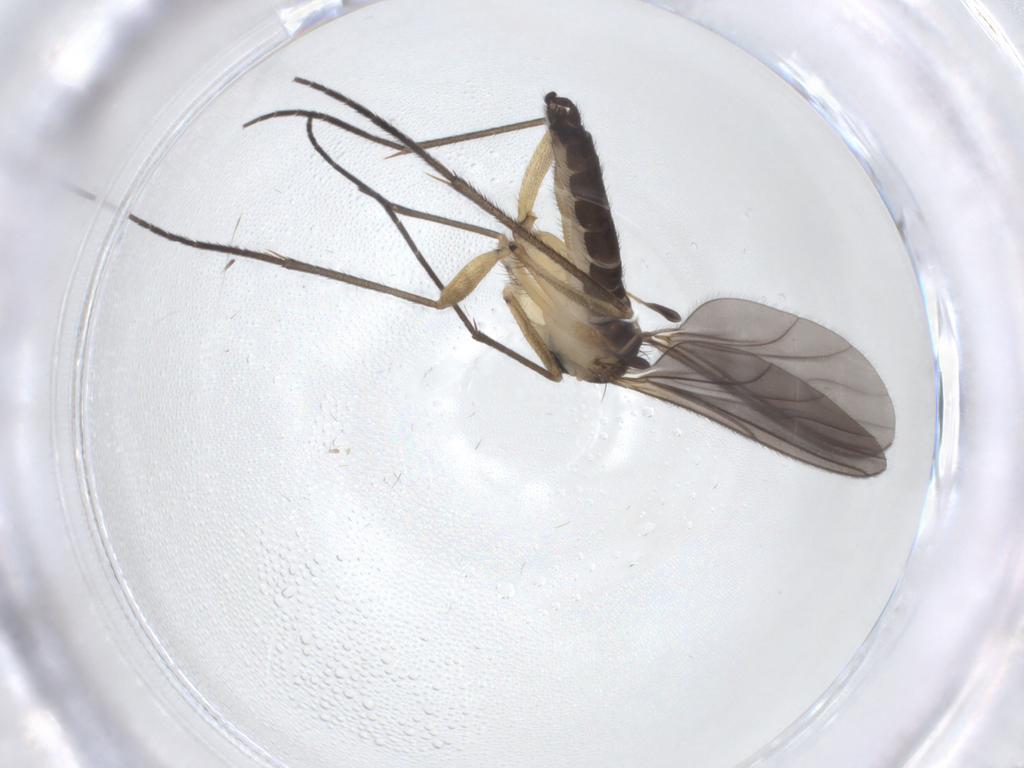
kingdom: Animalia
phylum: Arthropoda
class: Insecta
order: Diptera
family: Sciaridae
